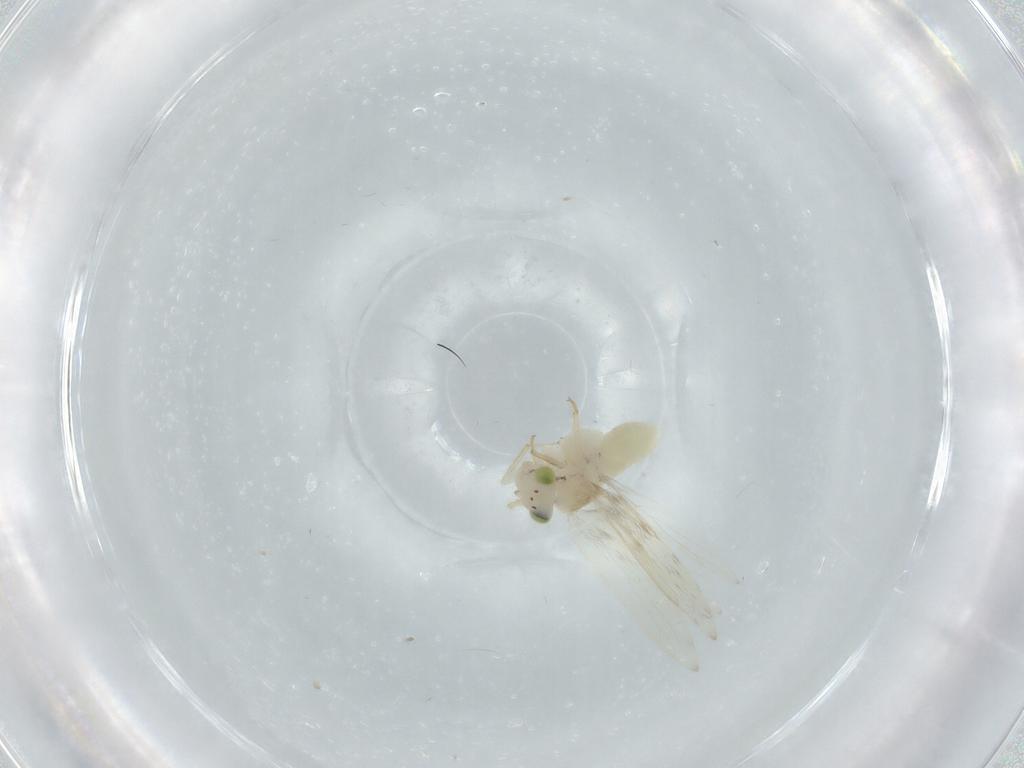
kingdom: Animalia
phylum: Arthropoda
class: Insecta
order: Psocodea
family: Lepidopsocidae
